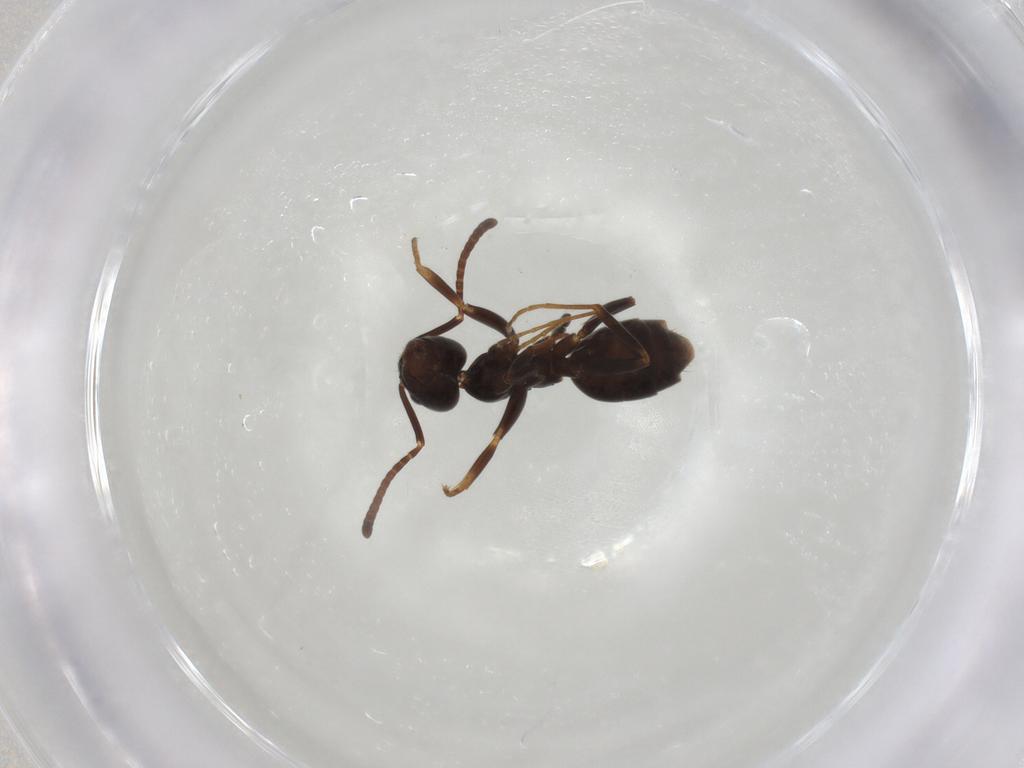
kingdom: Animalia
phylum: Arthropoda
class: Insecta
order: Hymenoptera
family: Formicidae
